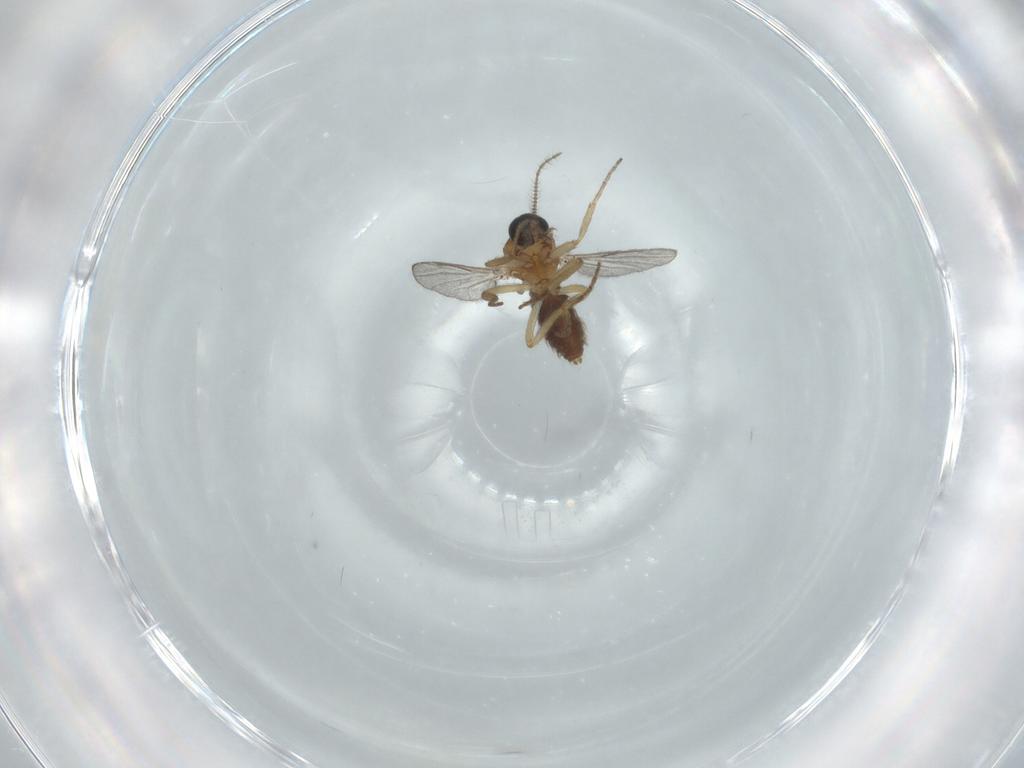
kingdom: Animalia
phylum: Arthropoda
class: Insecta
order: Diptera
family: Ceratopogonidae
